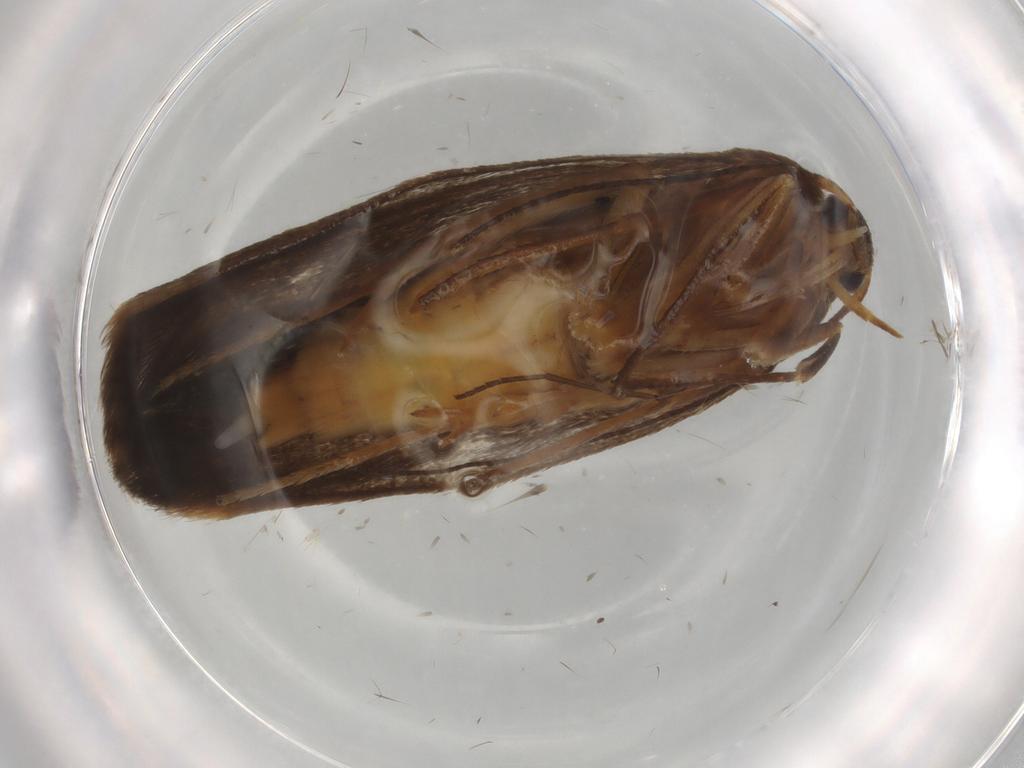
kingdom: Animalia
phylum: Arthropoda
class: Insecta
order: Lepidoptera
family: Scythrididae
